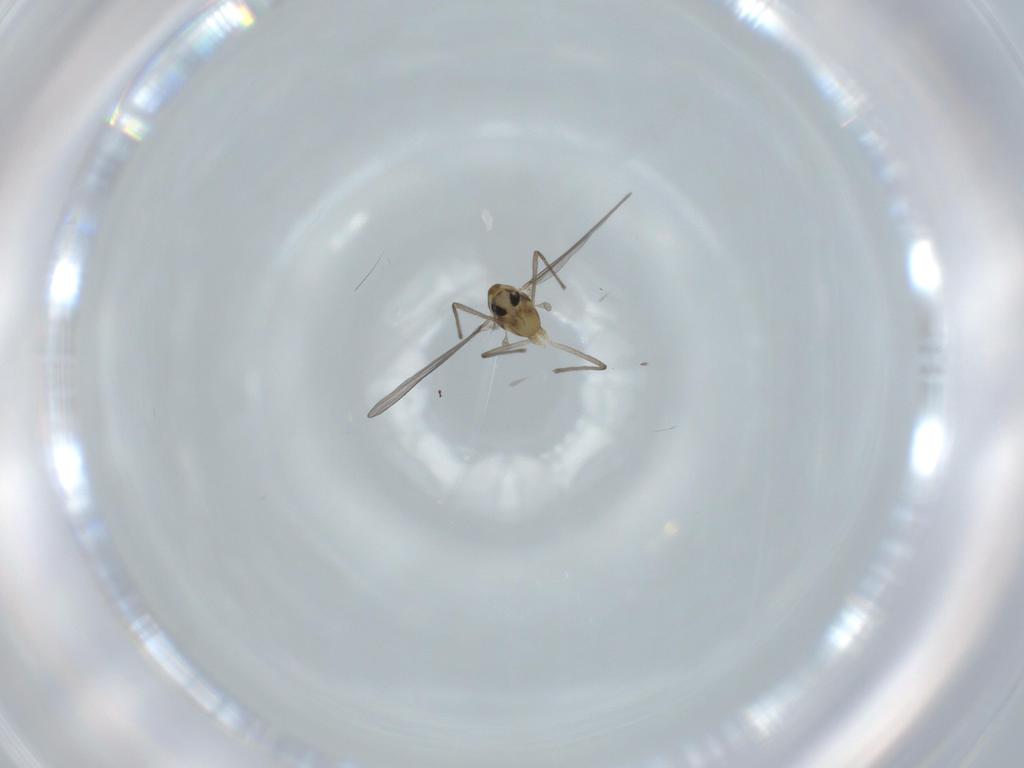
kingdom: Animalia
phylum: Arthropoda
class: Insecta
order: Diptera
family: Chironomidae
